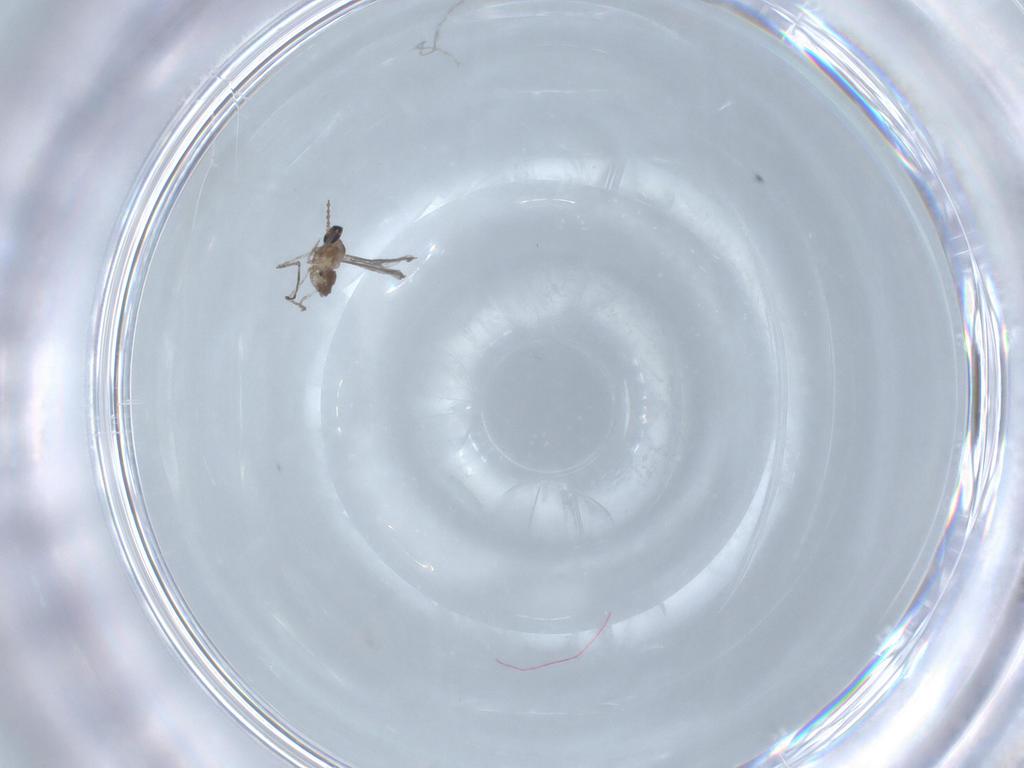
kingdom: Animalia
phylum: Arthropoda
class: Insecta
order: Diptera
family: Cecidomyiidae
